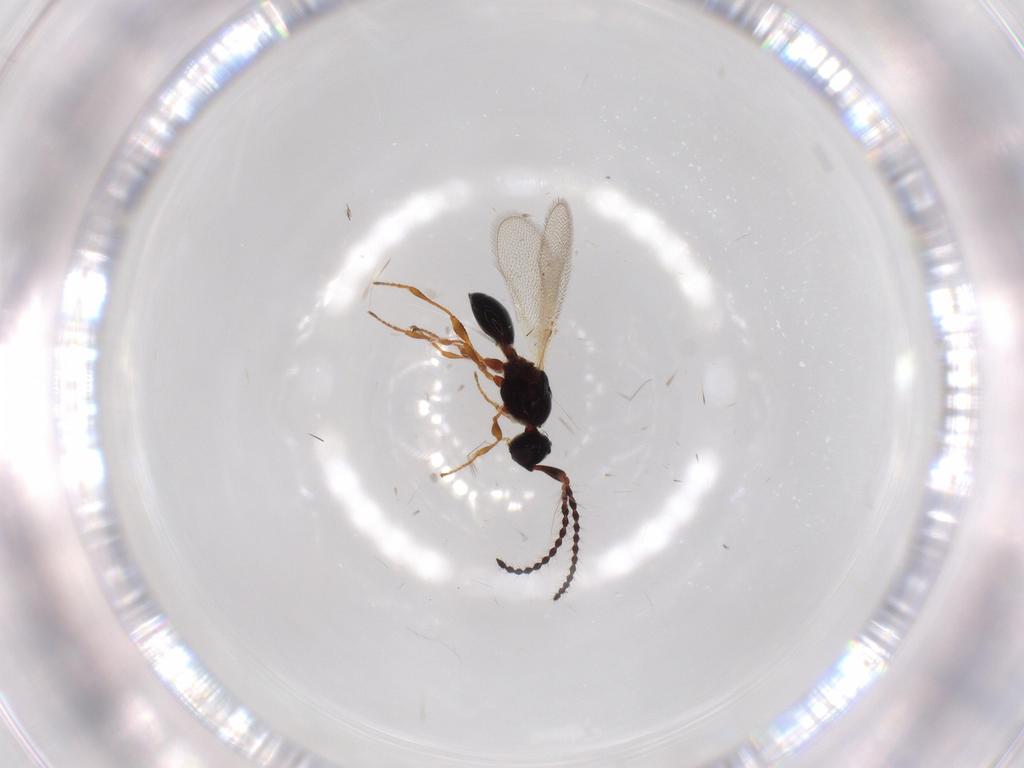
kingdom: Animalia
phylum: Arthropoda
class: Insecta
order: Hymenoptera
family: Diapriidae
